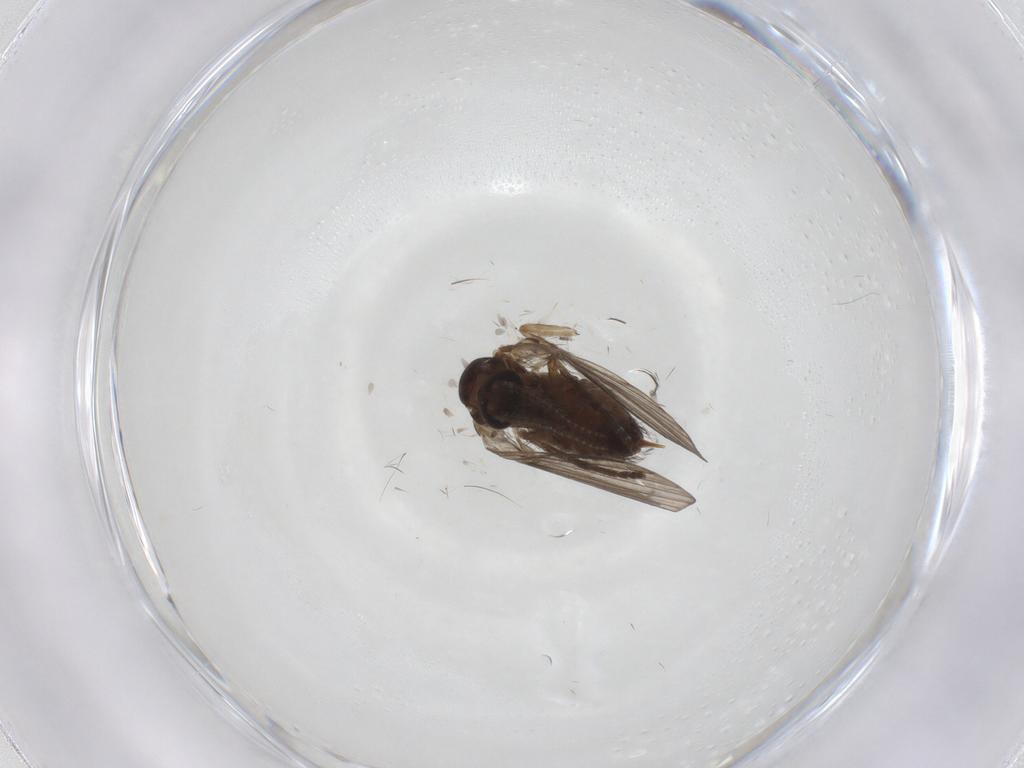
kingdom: Animalia
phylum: Arthropoda
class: Insecta
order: Diptera
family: Psychodidae
